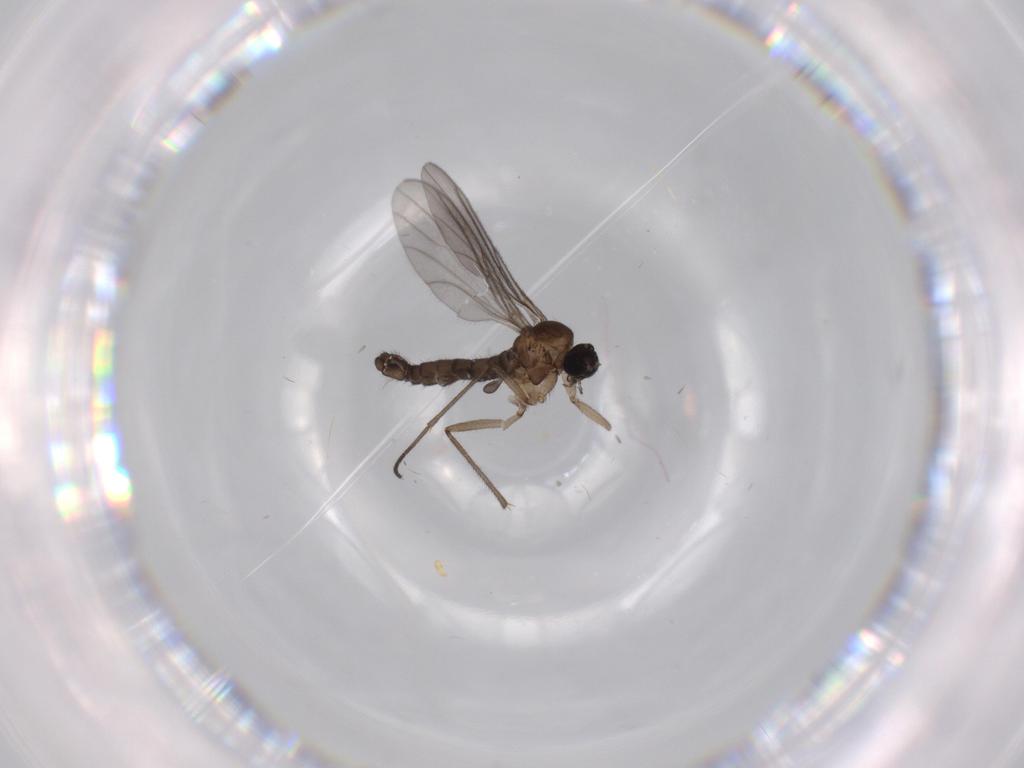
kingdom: Animalia
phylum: Arthropoda
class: Insecta
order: Diptera
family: Sciaridae
